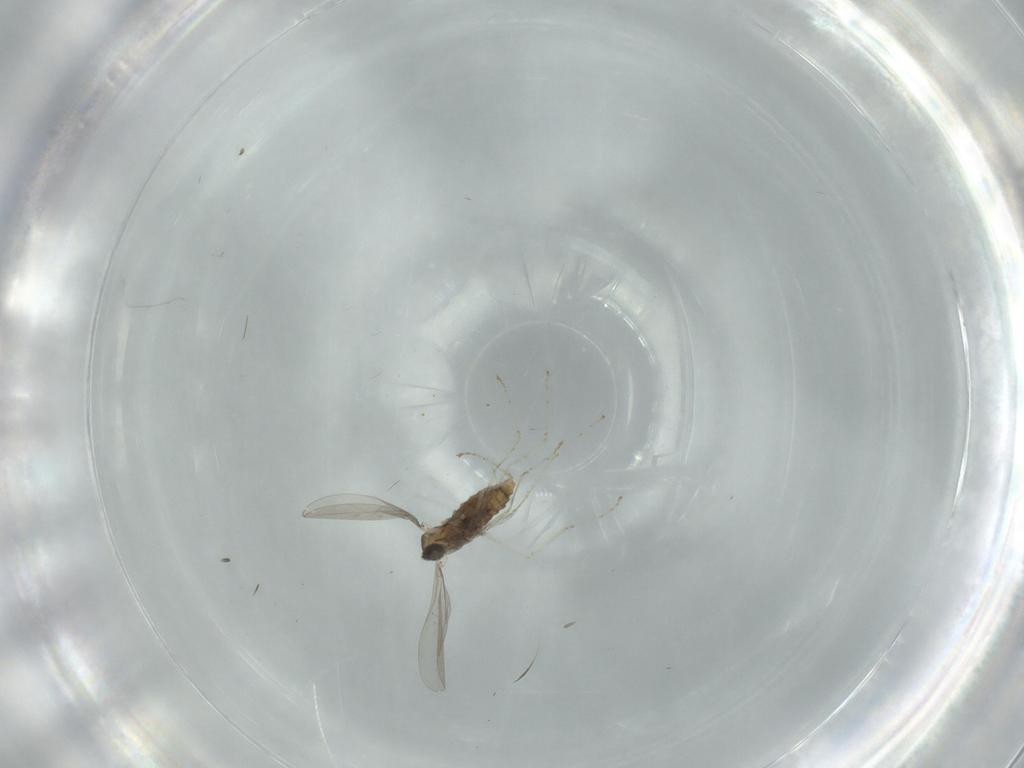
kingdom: Animalia
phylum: Arthropoda
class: Insecta
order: Diptera
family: Cecidomyiidae
